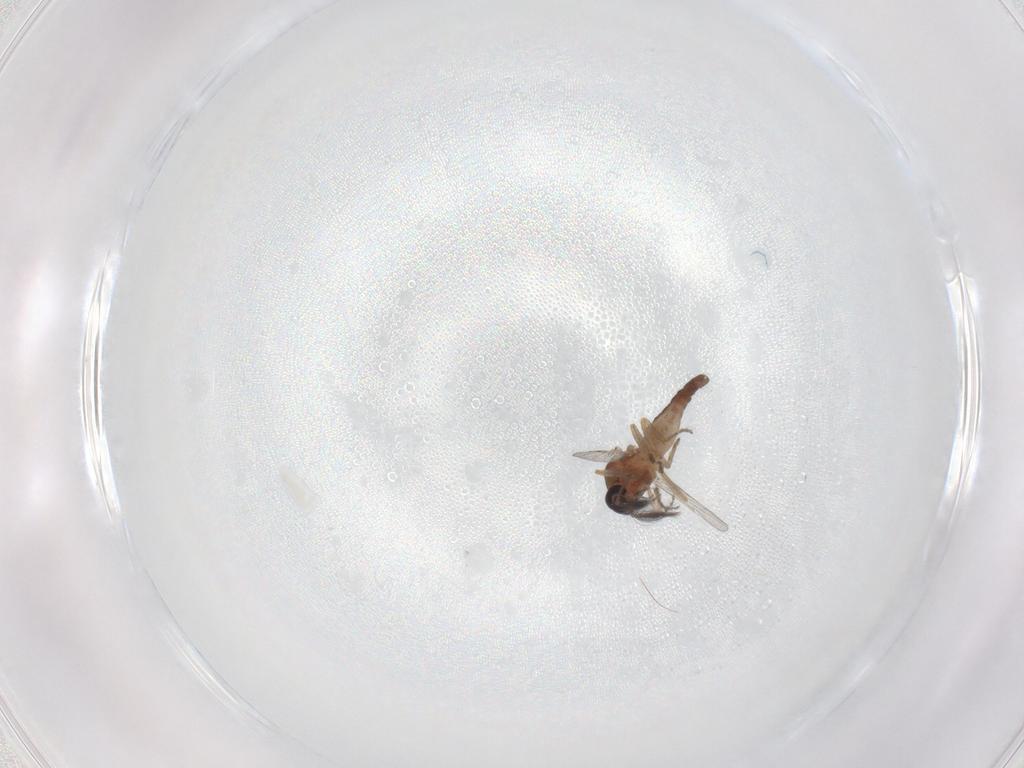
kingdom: Animalia
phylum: Arthropoda
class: Insecta
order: Diptera
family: Ceratopogonidae
